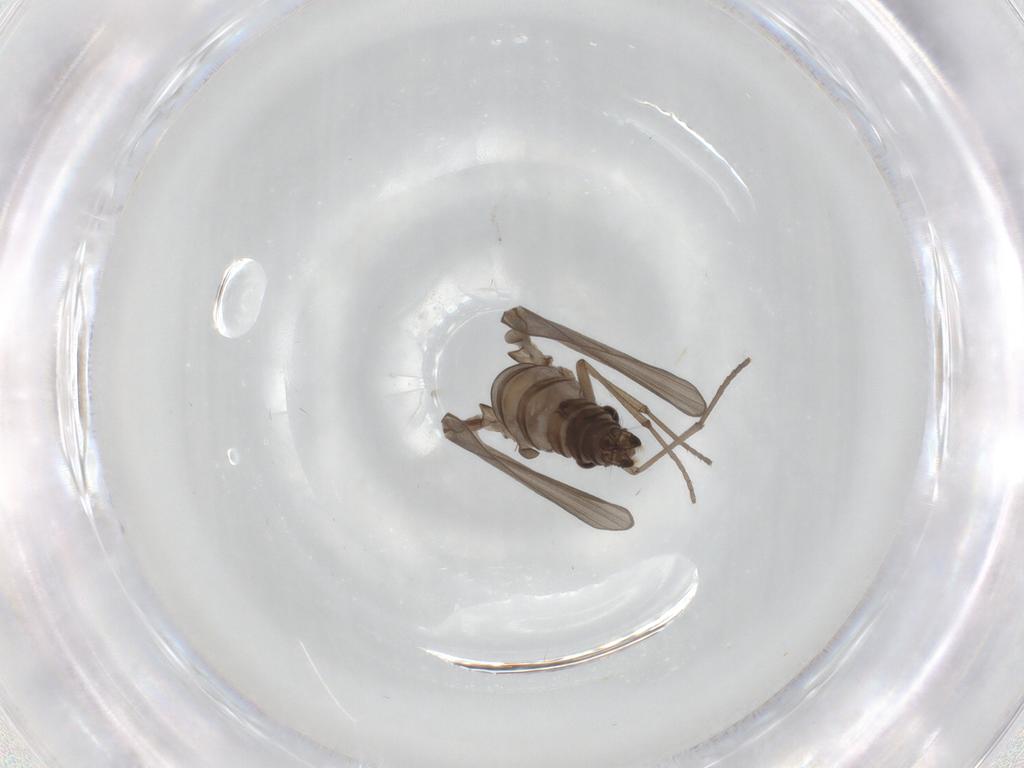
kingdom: Animalia
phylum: Arthropoda
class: Insecta
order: Diptera
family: Psychodidae
